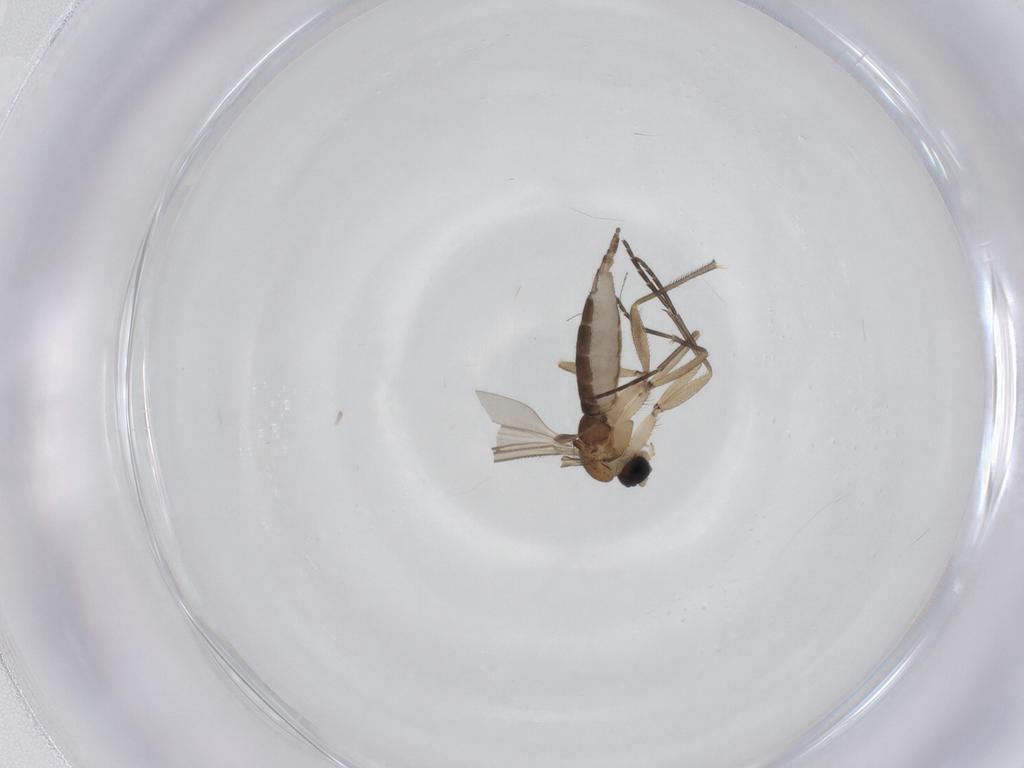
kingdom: Animalia
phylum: Arthropoda
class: Insecta
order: Diptera
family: Sciaridae
